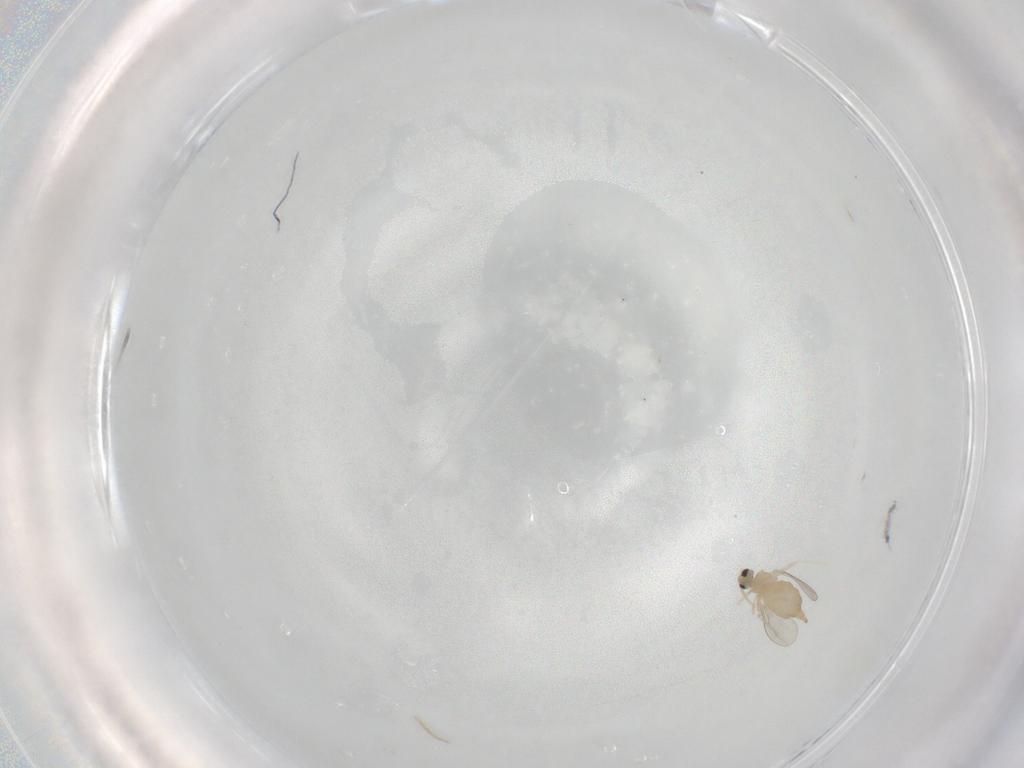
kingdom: Animalia
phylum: Arthropoda
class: Insecta
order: Diptera
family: Cecidomyiidae
